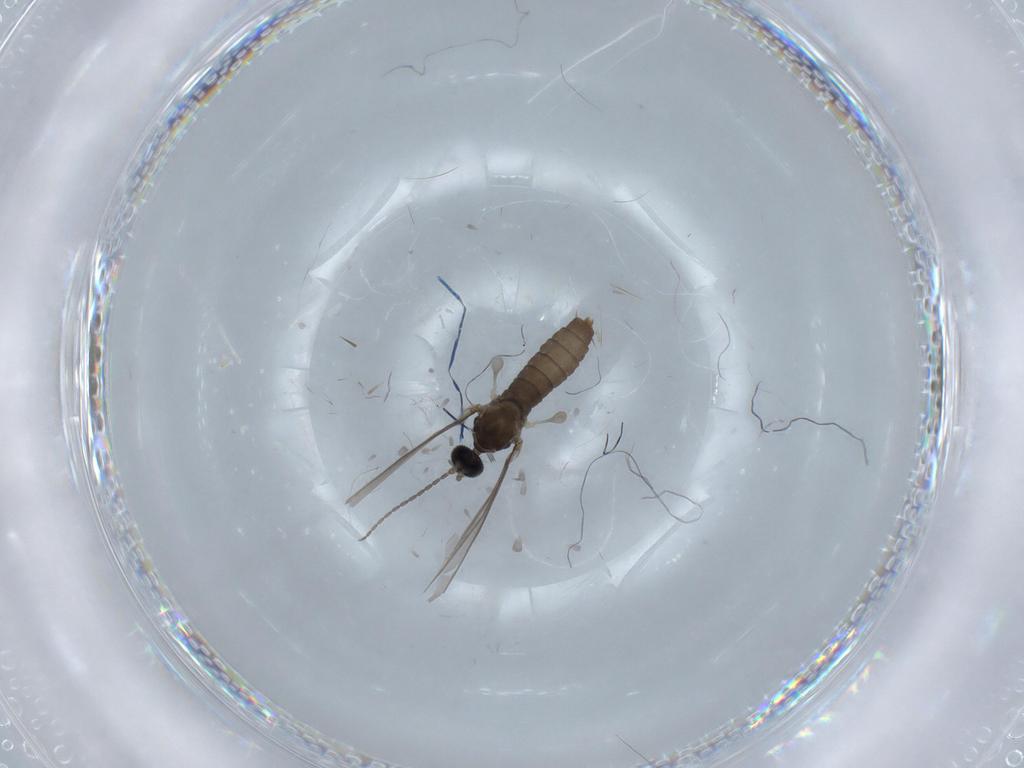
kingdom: Animalia
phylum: Arthropoda
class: Insecta
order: Diptera
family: Cecidomyiidae
